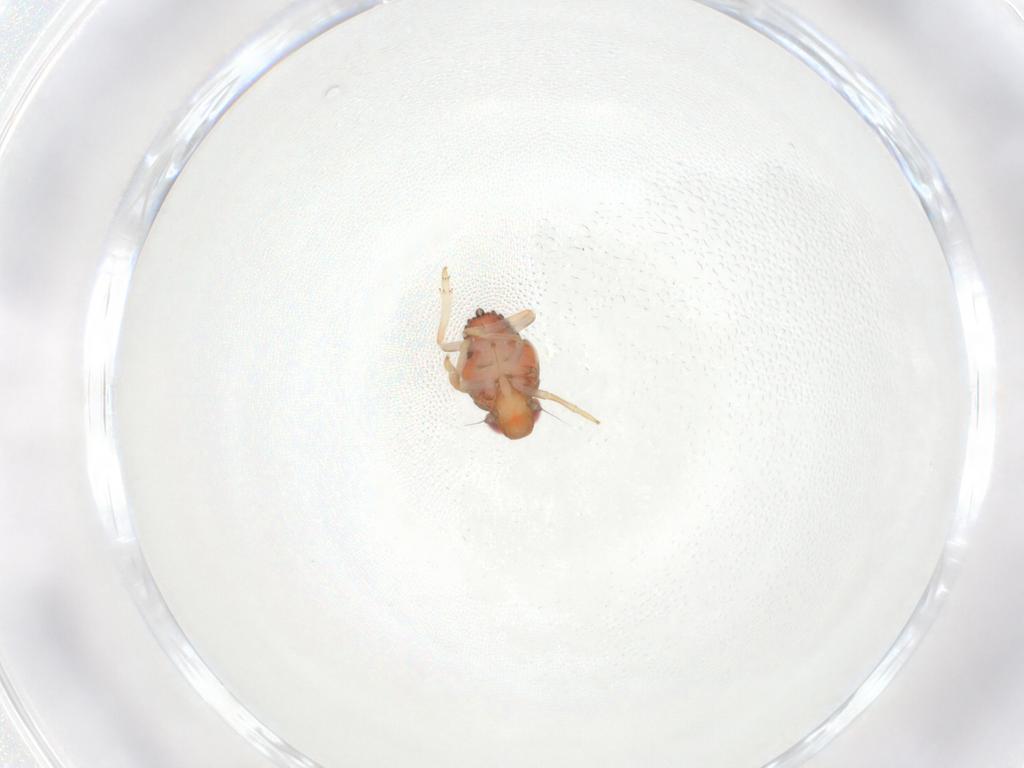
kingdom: Animalia
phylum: Arthropoda
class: Insecta
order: Hemiptera
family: Issidae
